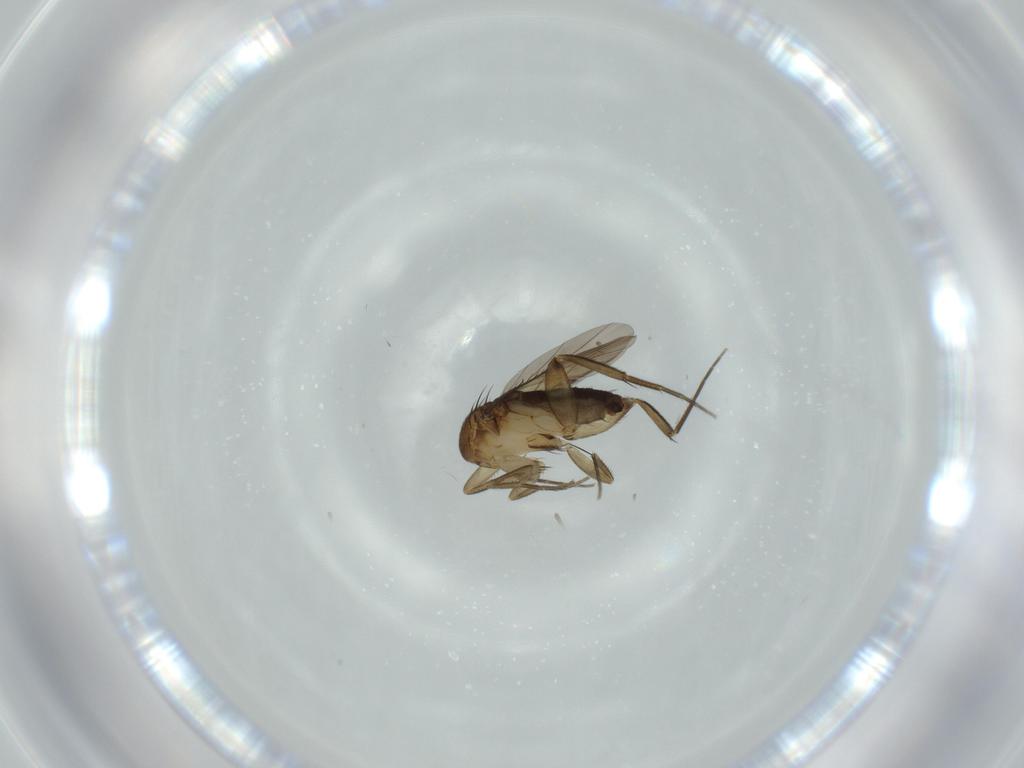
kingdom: Animalia
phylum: Arthropoda
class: Insecta
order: Diptera
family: Phoridae
